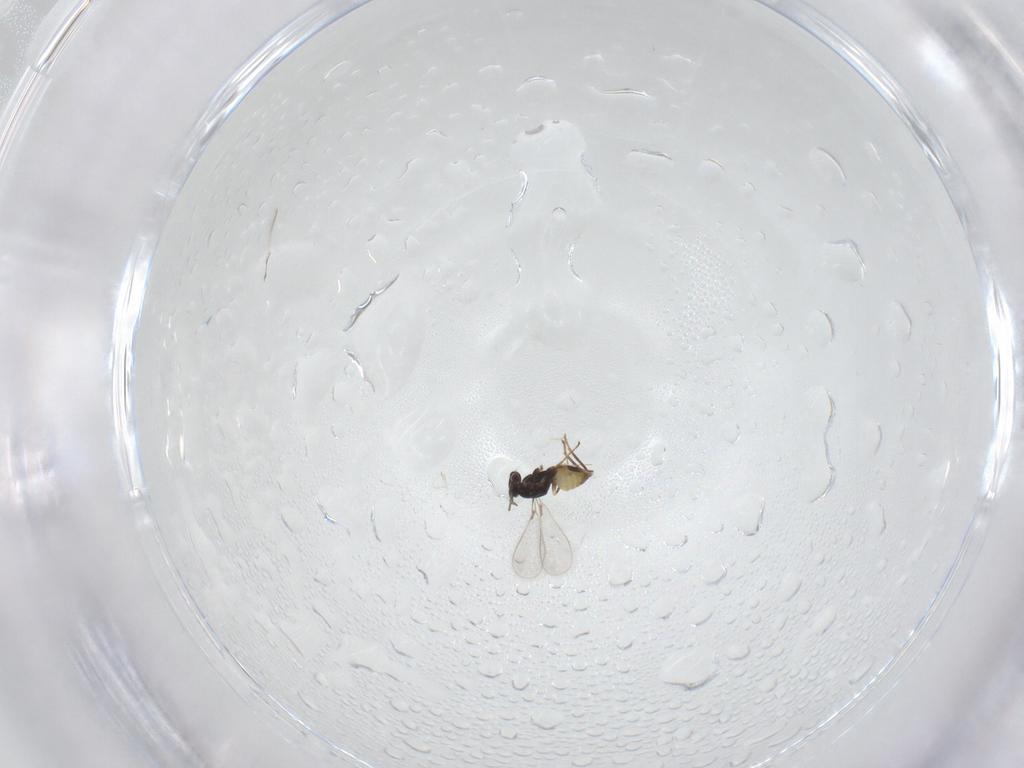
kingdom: Animalia
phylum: Arthropoda
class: Insecta
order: Hymenoptera
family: Mymaridae
